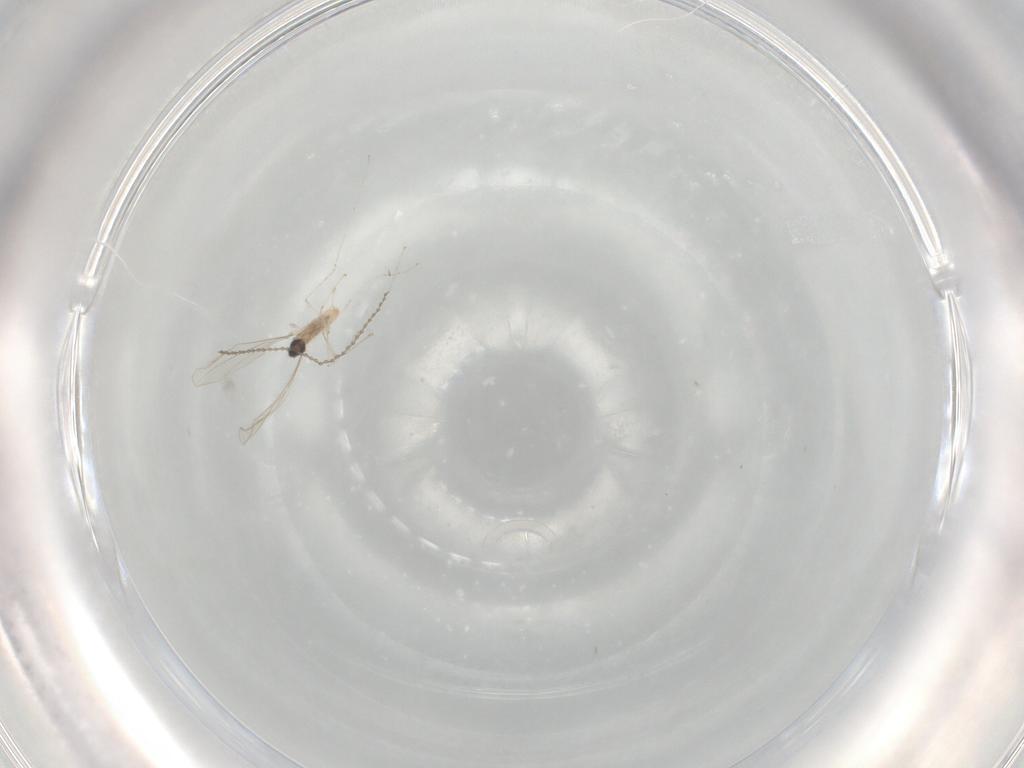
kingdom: Animalia
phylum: Arthropoda
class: Insecta
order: Diptera
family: Cecidomyiidae
